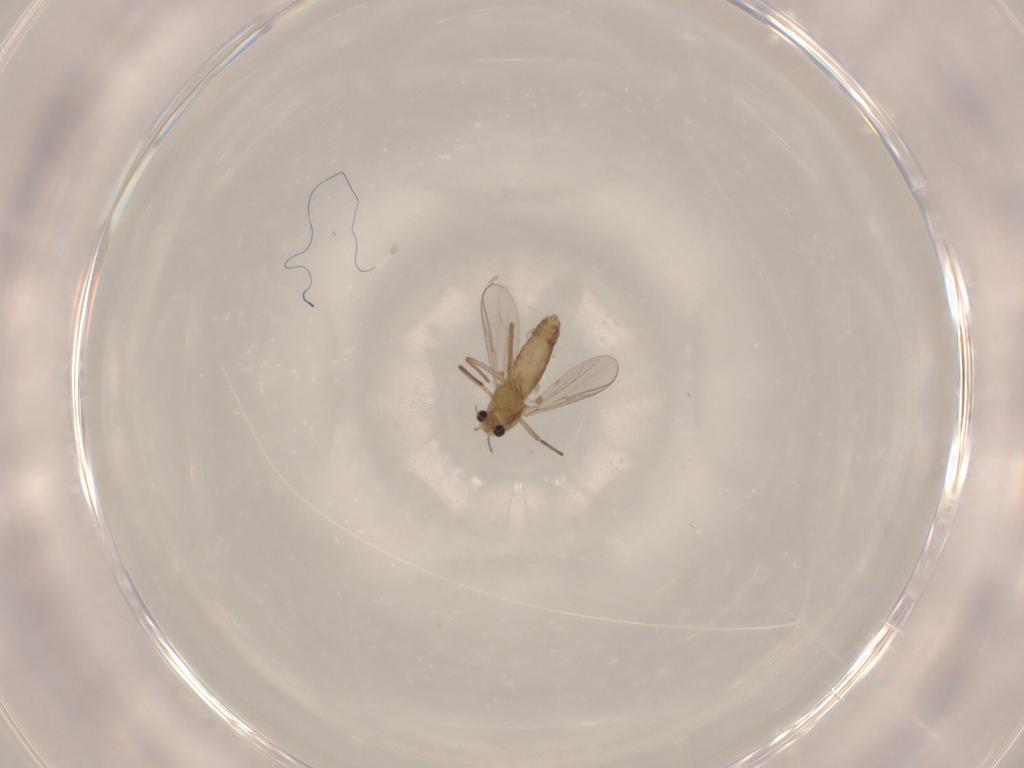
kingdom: Animalia
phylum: Arthropoda
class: Insecta
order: Diptera
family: Chironomidae
